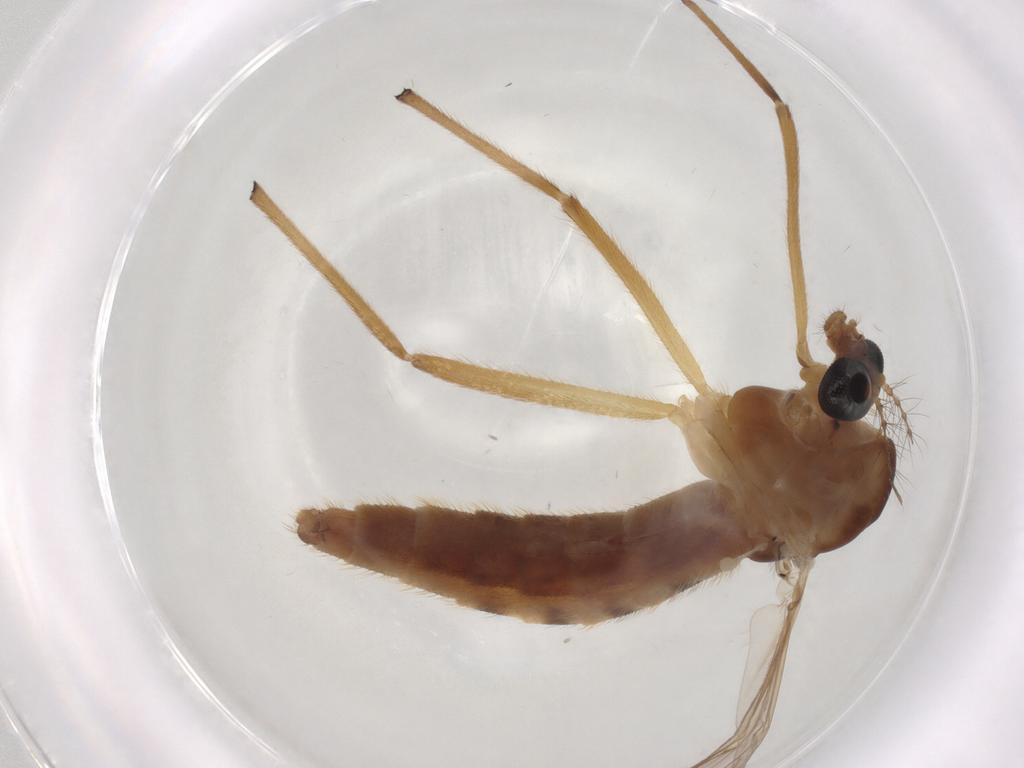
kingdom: Animalia
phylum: Arthropoda
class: Insecta
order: Diptera
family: Chironomidae
